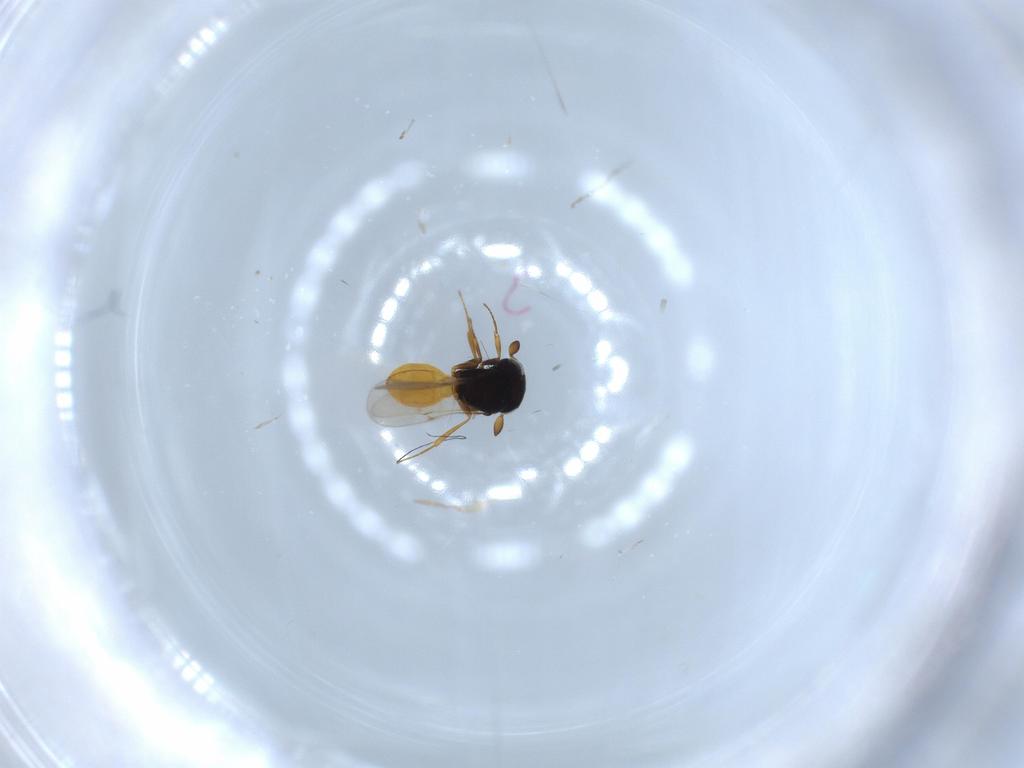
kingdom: Animalia
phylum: Arthropoda
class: Insecta
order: Hymenoptera
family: Scelionidae
